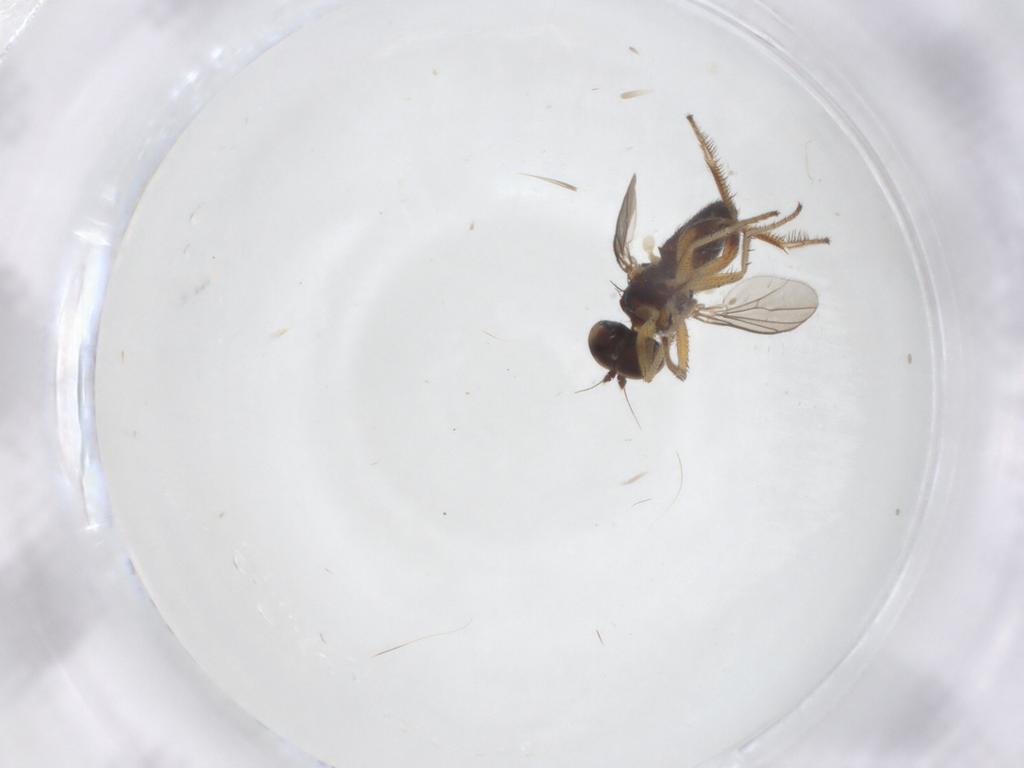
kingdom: Animalia
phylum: Arthropoda
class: Insecta
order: Diptera
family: Dolichopodidae
